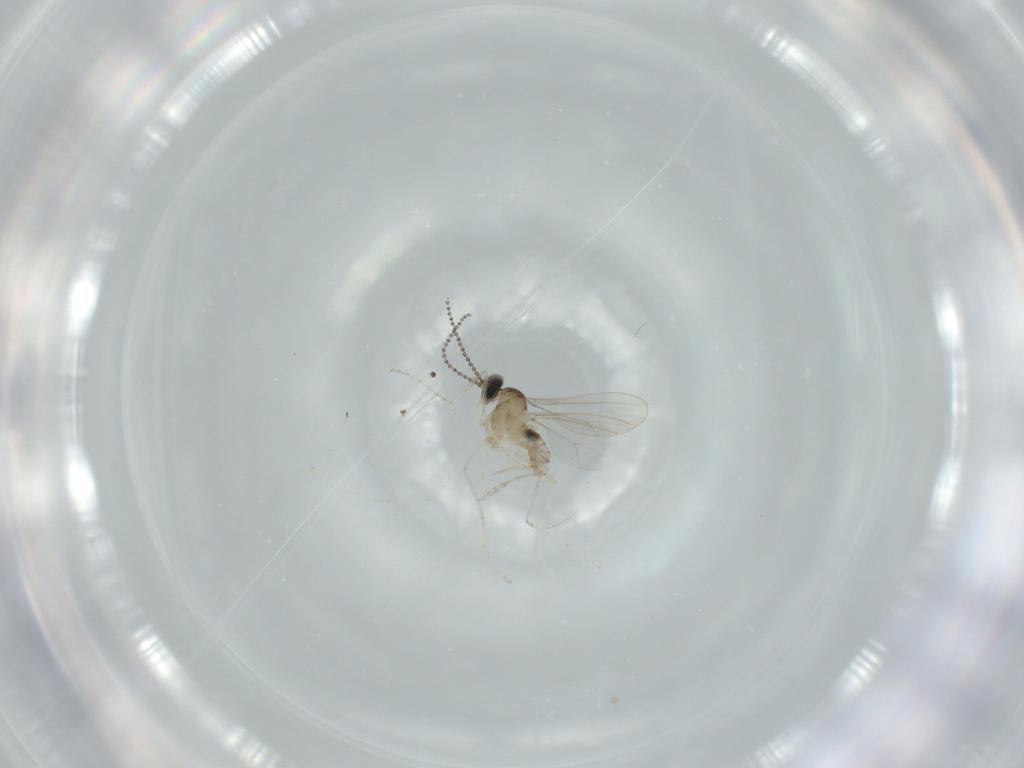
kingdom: Animalia
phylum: Arthropoda
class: Insecta
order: Diptera
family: Cecidomyiidae
